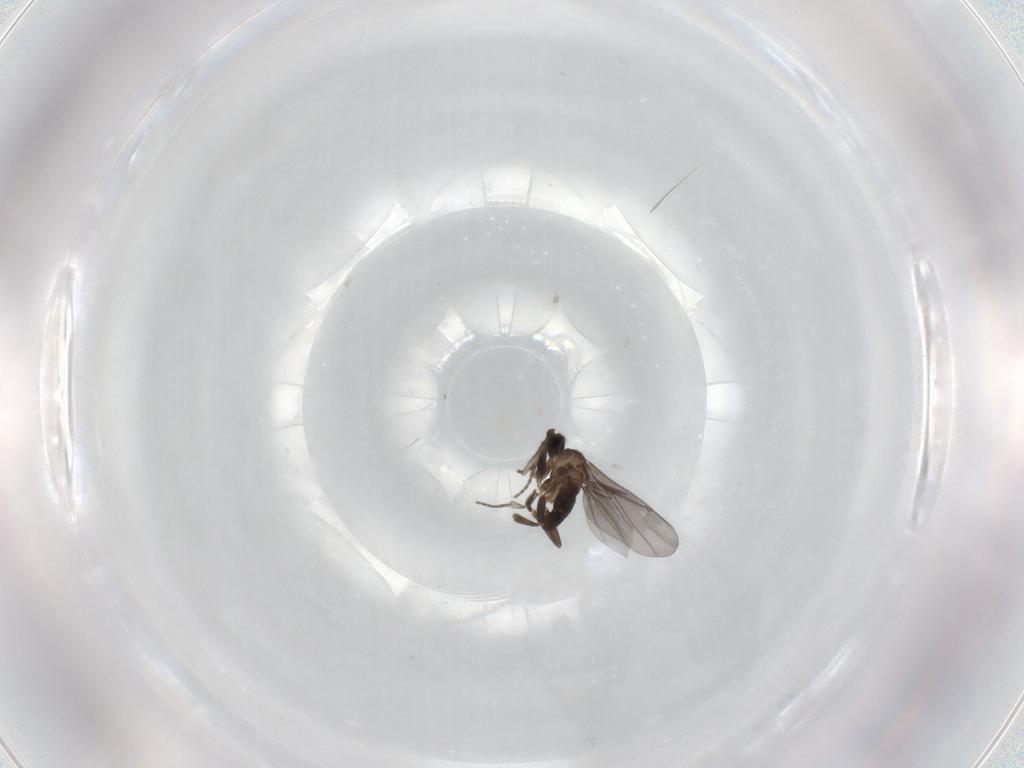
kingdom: Animalia
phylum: Arthropoda
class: Insecta
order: Diptera
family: Phoridae
